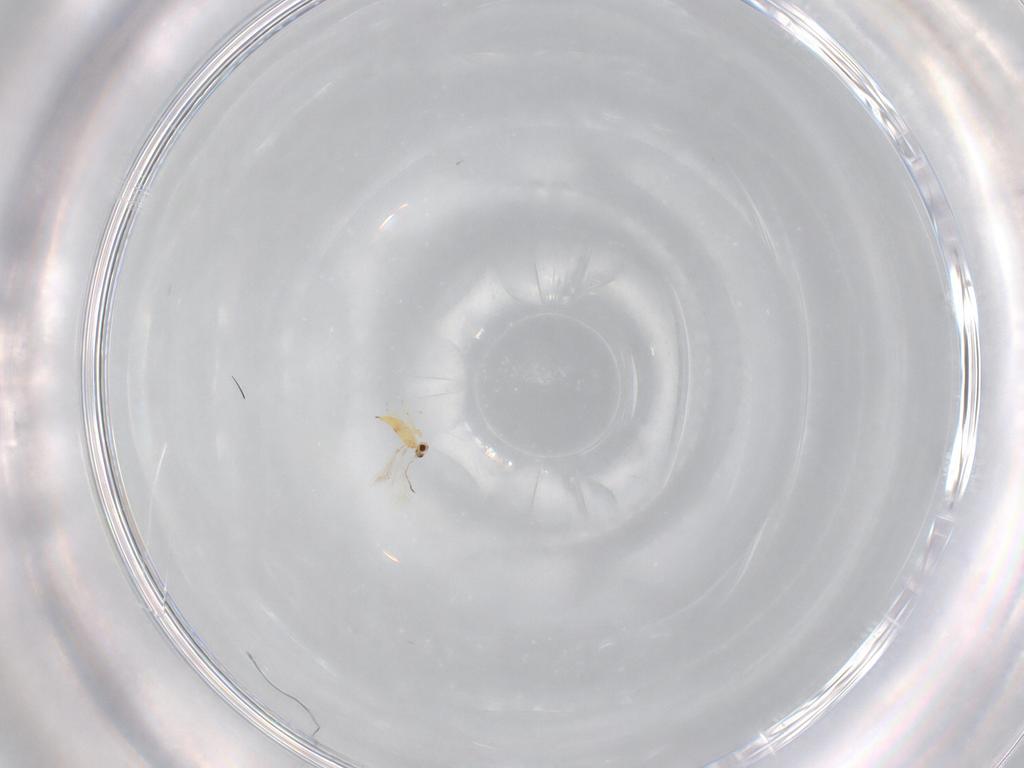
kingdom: Animalia
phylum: Arthropoda
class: Insecta
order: Hymenoptera
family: Mymaridae
